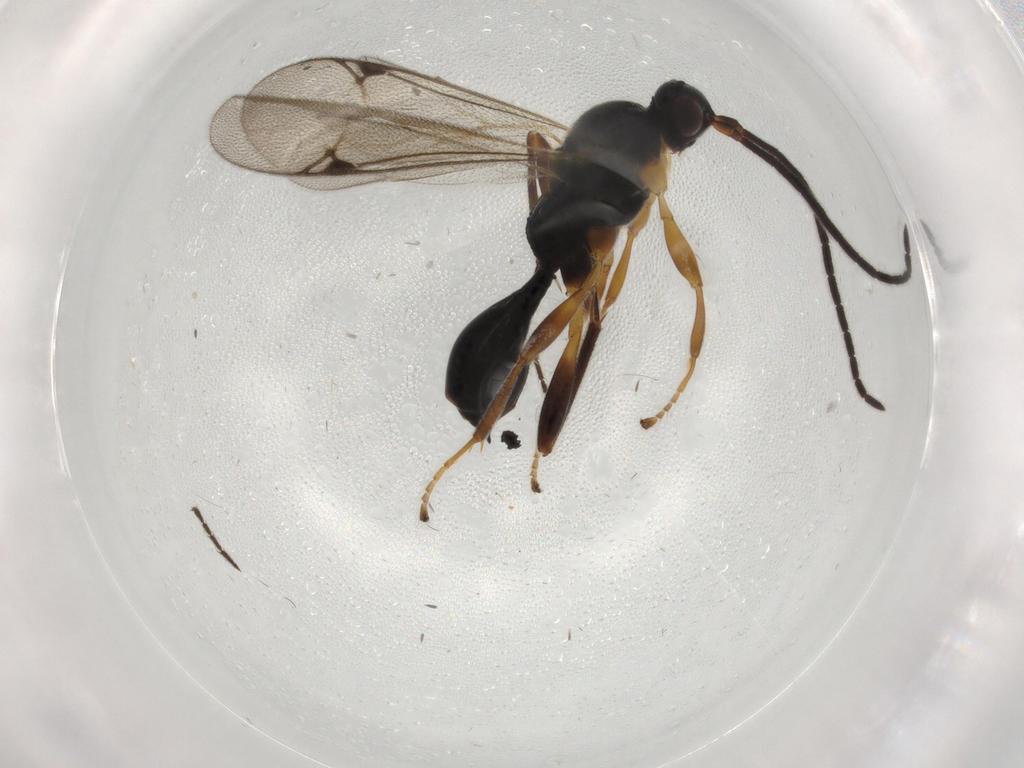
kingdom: Animalia
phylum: Arthropoda
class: Insecta
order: Hymenoptera
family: Proctotrupidae
